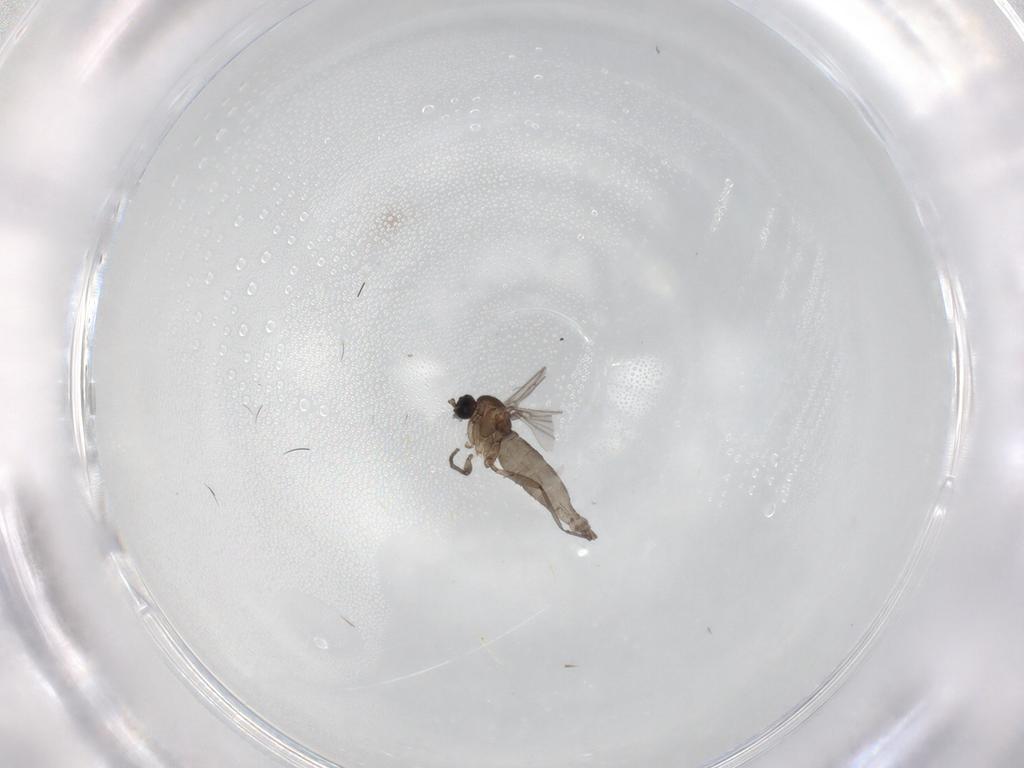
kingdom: Animalia
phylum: Arthropoda
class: Insecta
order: Diptera
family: Sciaridae
